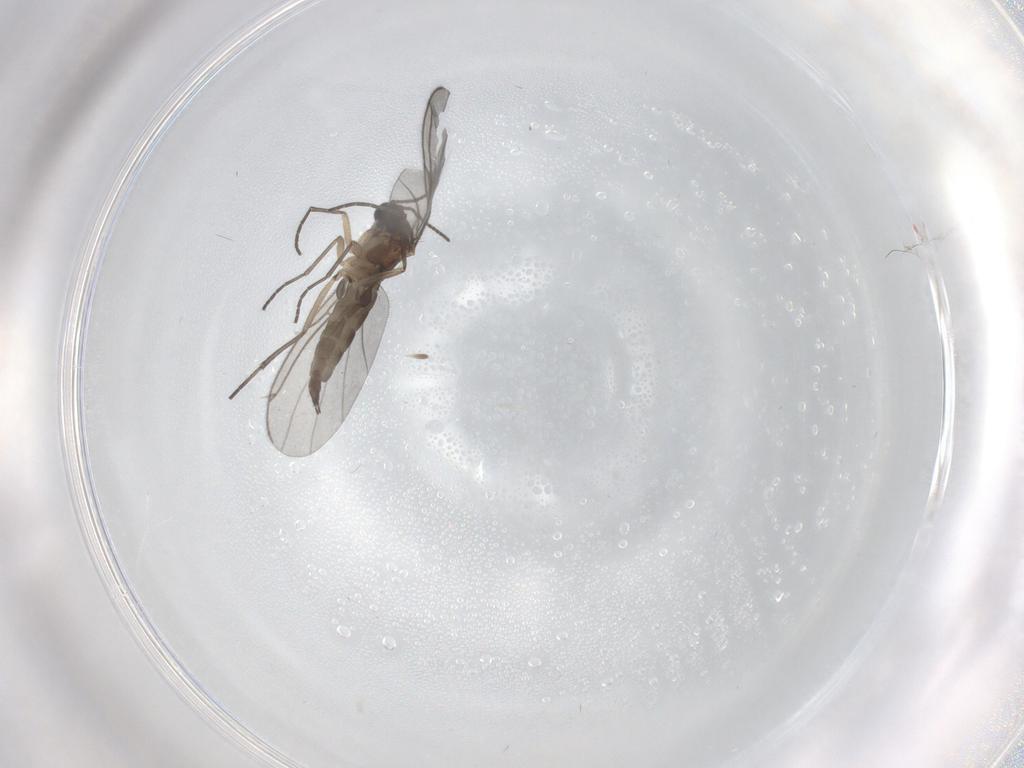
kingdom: Animalia
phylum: Arthropoda
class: Insecta
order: Diptera
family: Sciaridae
